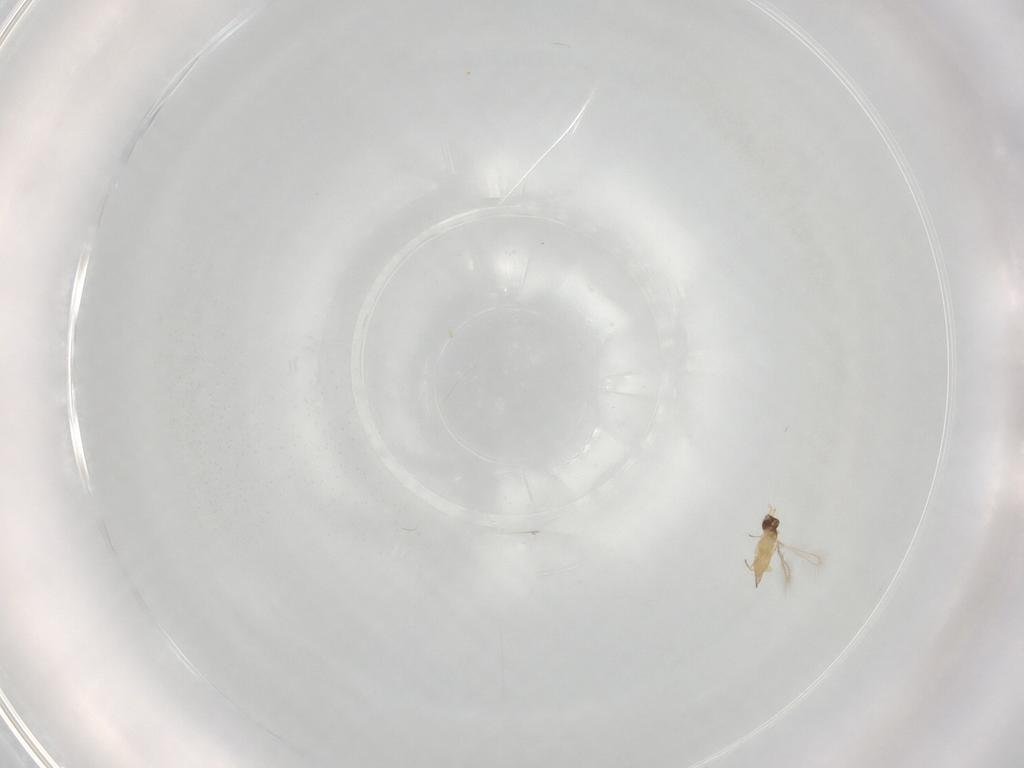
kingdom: Animalia
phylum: Arthropoda
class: Insecta
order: Hymenoptera
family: Mymaridae
